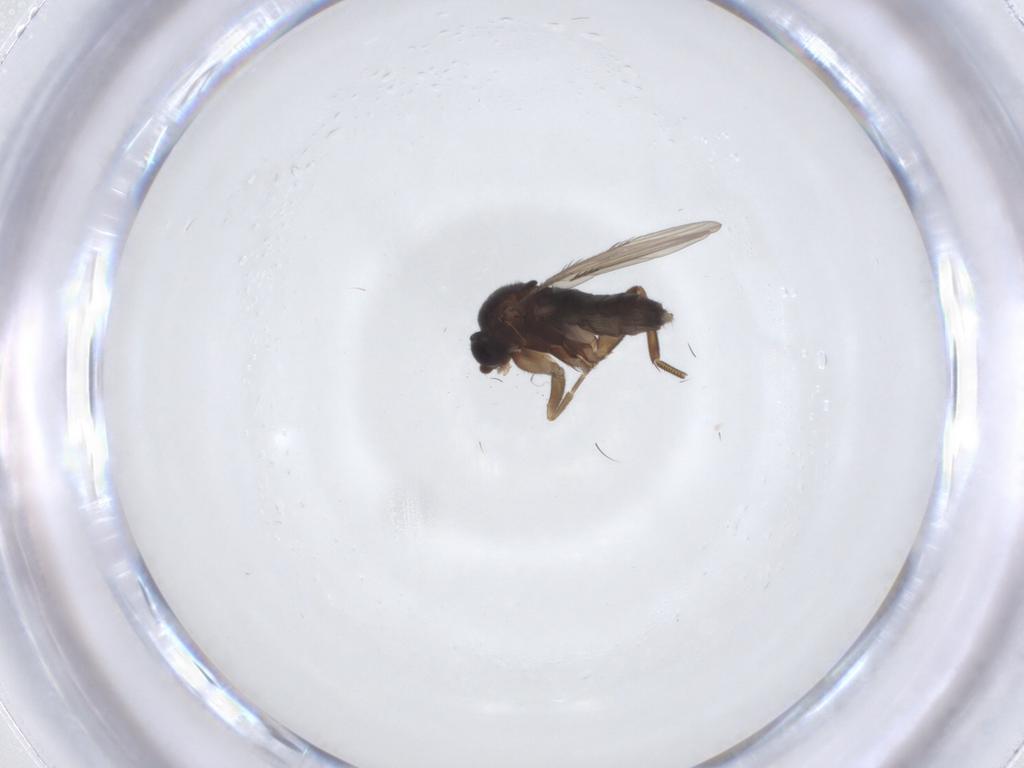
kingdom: Animalia
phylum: Arthropoda
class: Insecta
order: Diptera
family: Phoridae
